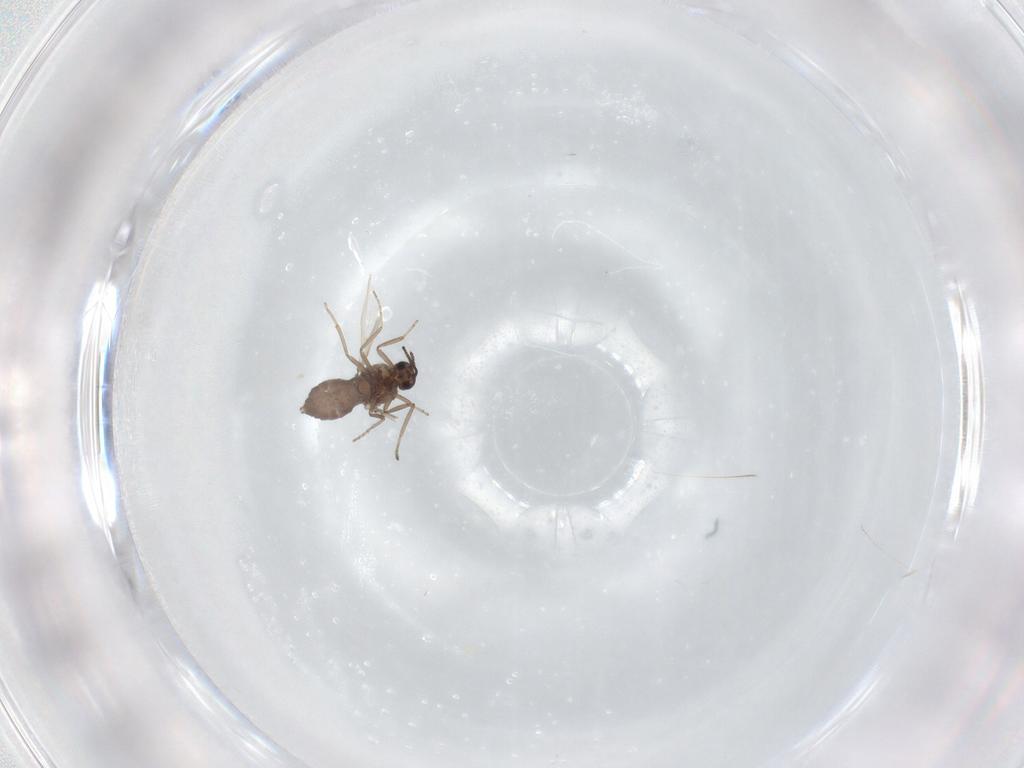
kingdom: Animalia
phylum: Arthropoda
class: Insecta
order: Diptera
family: Ceratopogonidae
